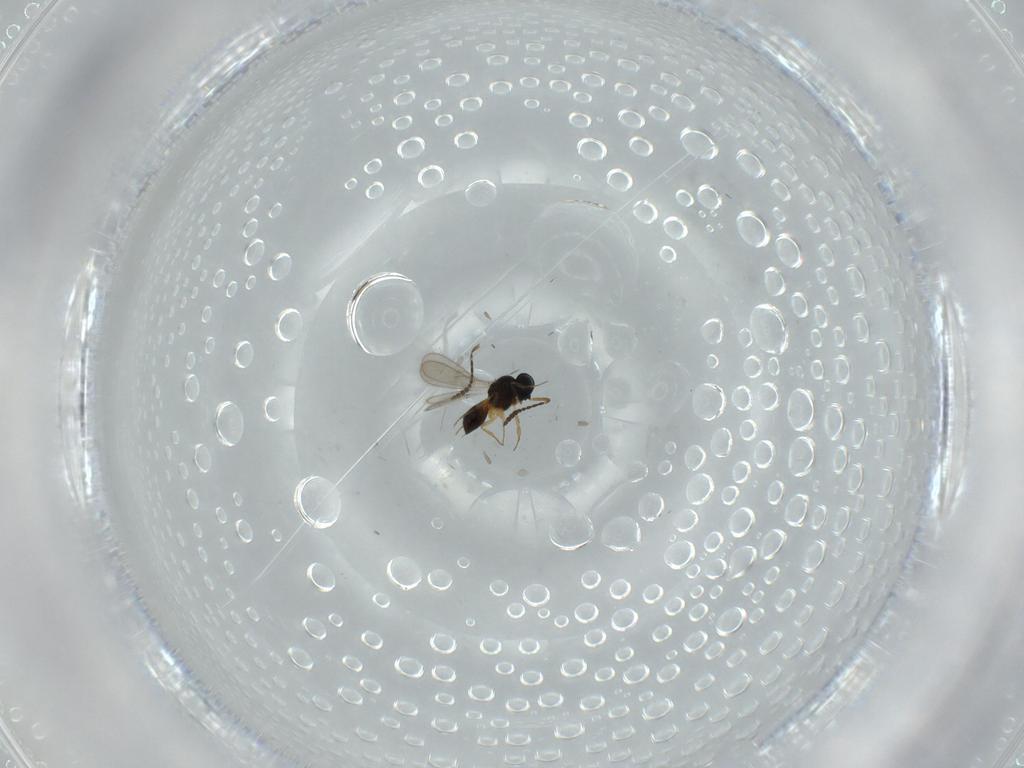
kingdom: Animalia
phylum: Arthropoda
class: Insecta
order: Hymenoptera
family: Scelionidae
